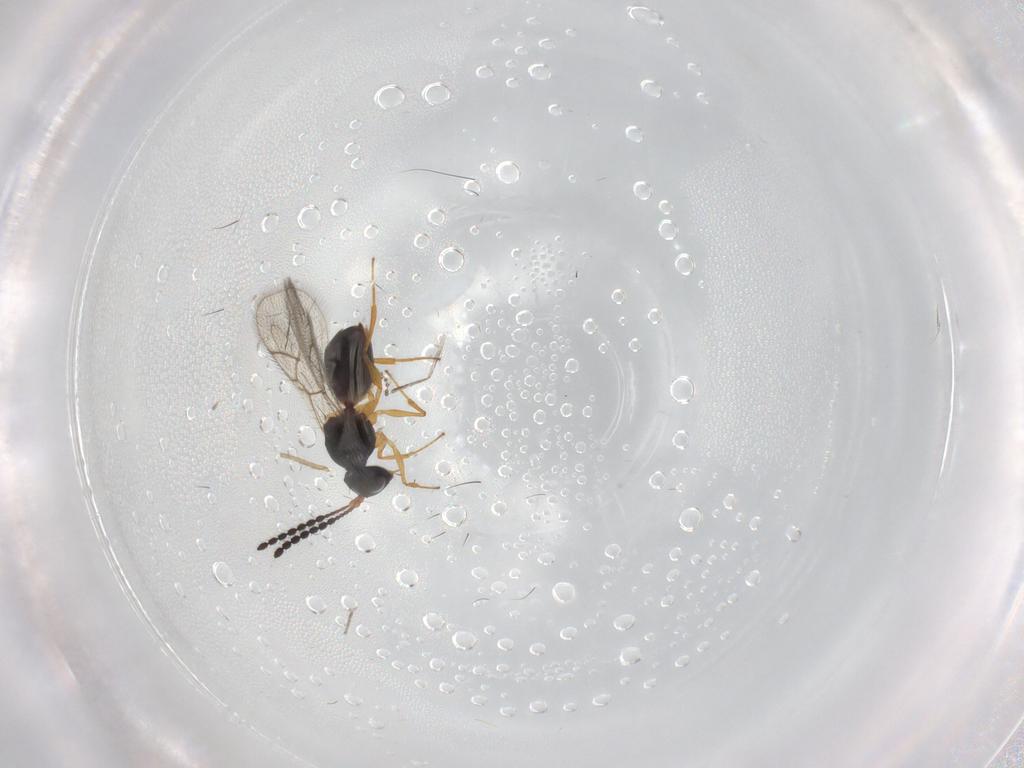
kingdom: Animalia
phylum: Arthropoda
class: Insecta
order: Hymenoptera
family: Figitidae
